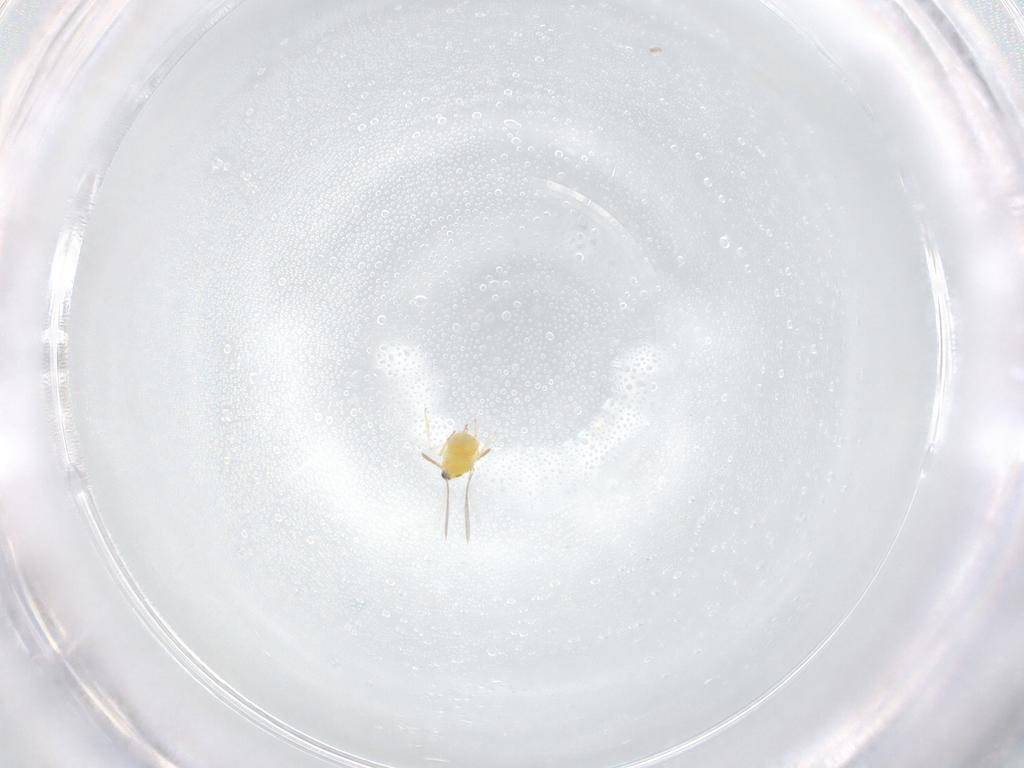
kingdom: Animalia
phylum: Arthropoda
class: Insecta
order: Hymenoptera
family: Aphelinidae
